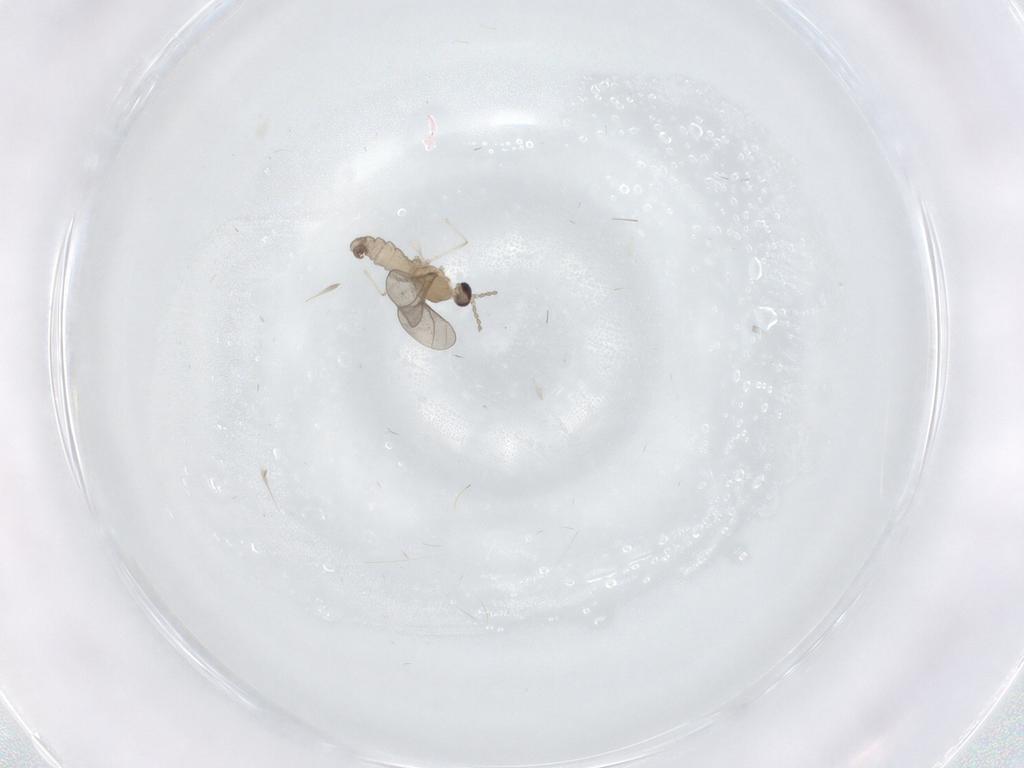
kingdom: Animalia
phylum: Arthropoda
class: Insecta
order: Diptera
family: Cecidomyiidae
